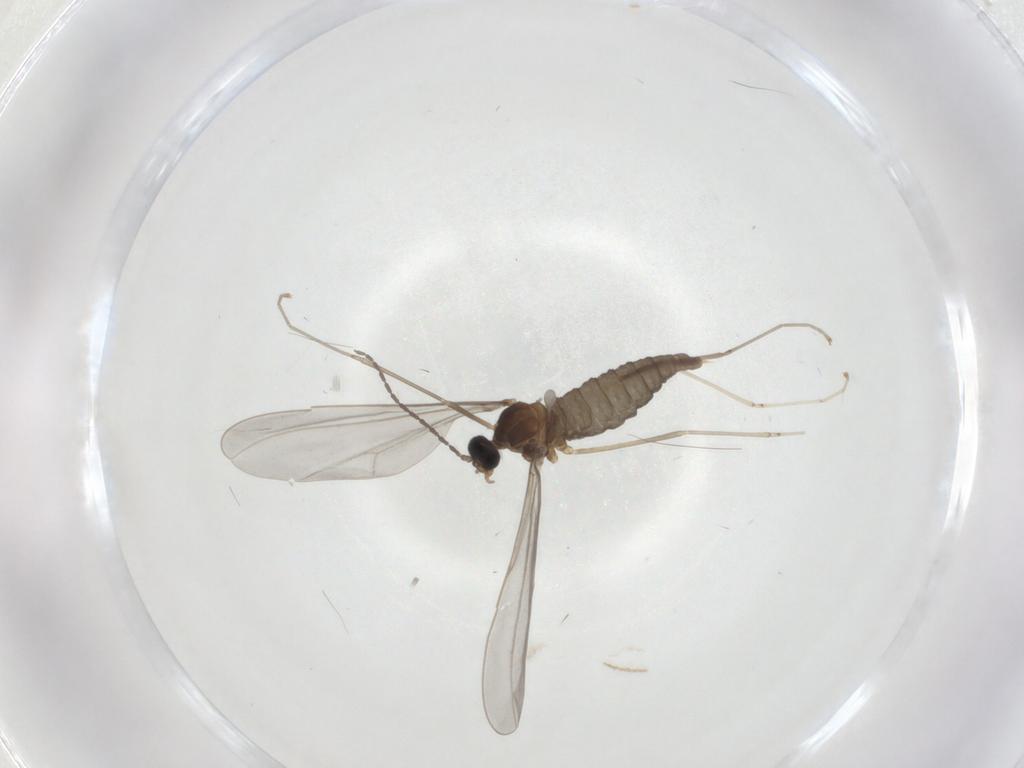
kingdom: Animalia
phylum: Arthropoda
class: Insecta
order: Diptera
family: Cecidomyiidae
